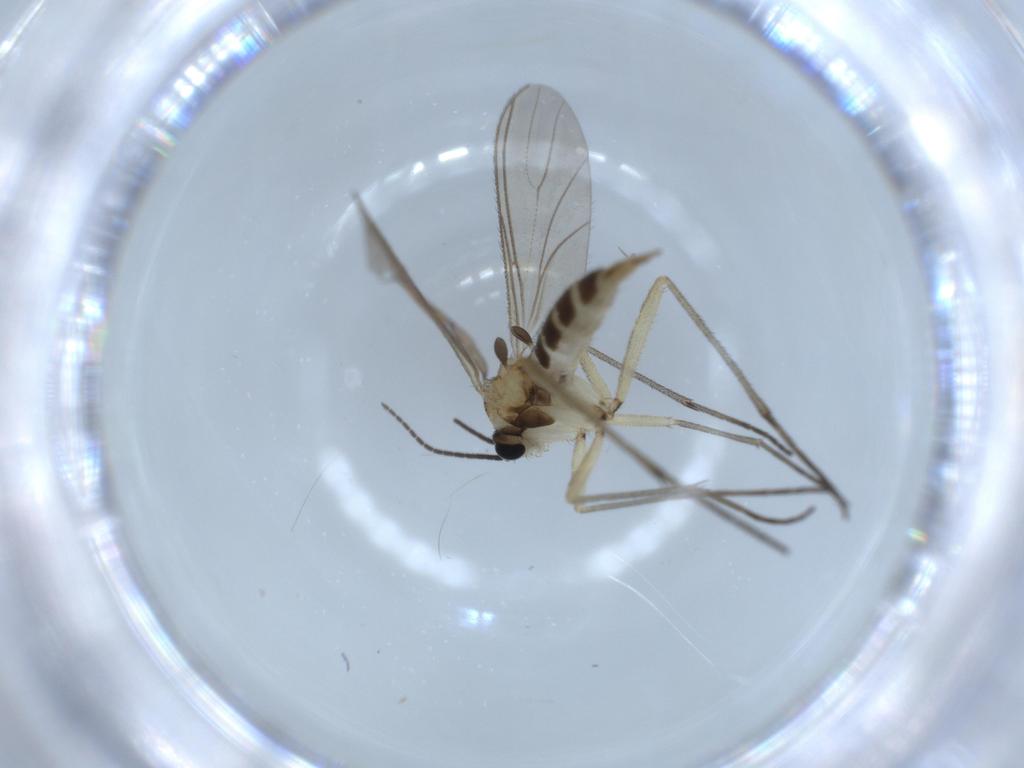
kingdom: Animalia
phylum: Arthropoda
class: Insecta
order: Diptera
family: Sciaridae
